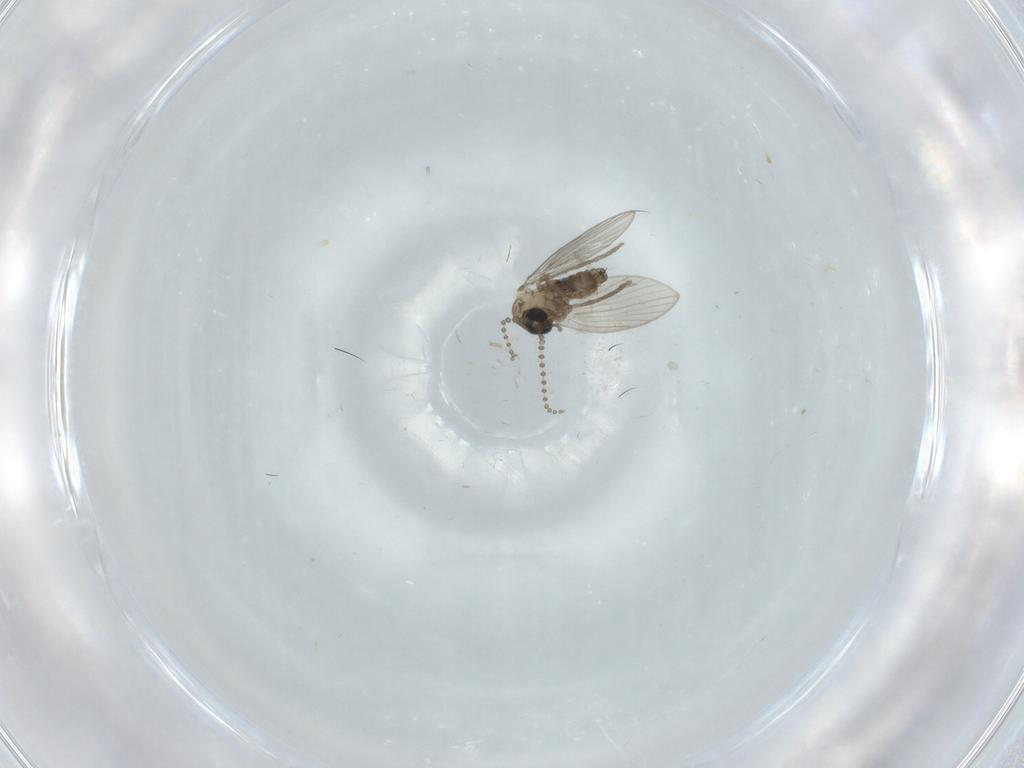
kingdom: Animalia
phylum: Arthropoda
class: Insecta
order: Diptera
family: Psychodidae
